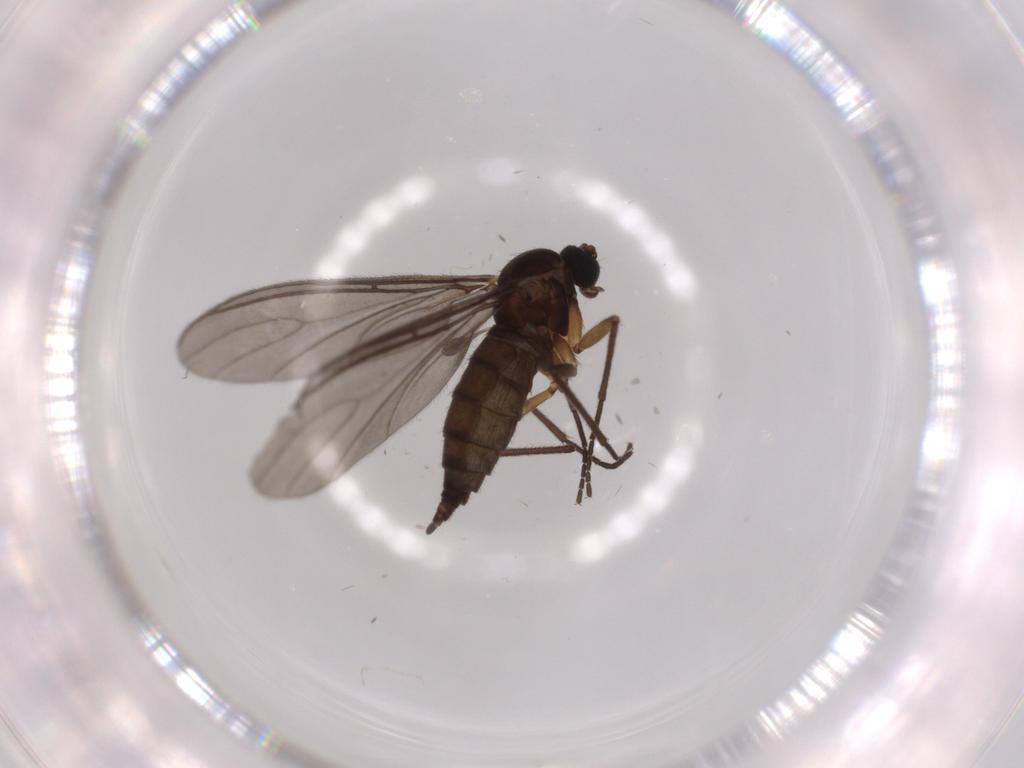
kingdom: Animalia
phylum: Arthropoda
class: Insecta
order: Diptera
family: Sciaridae
